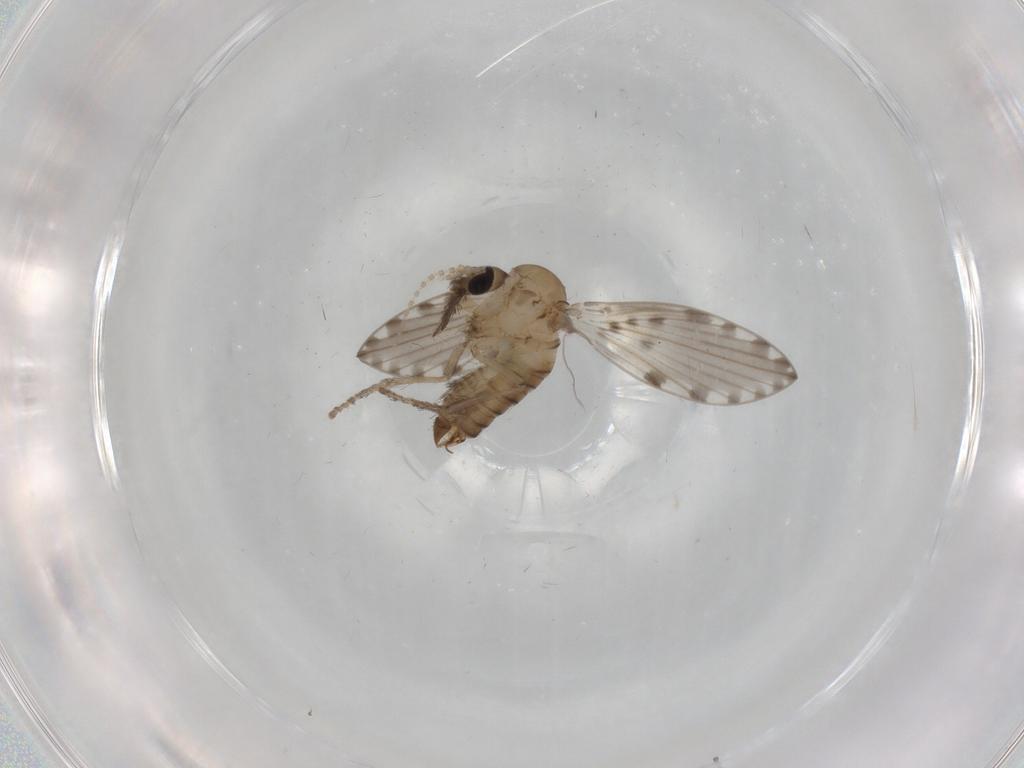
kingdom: Animalia
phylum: Arthropoda
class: Insecta
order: Diptera
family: Psychodidae
